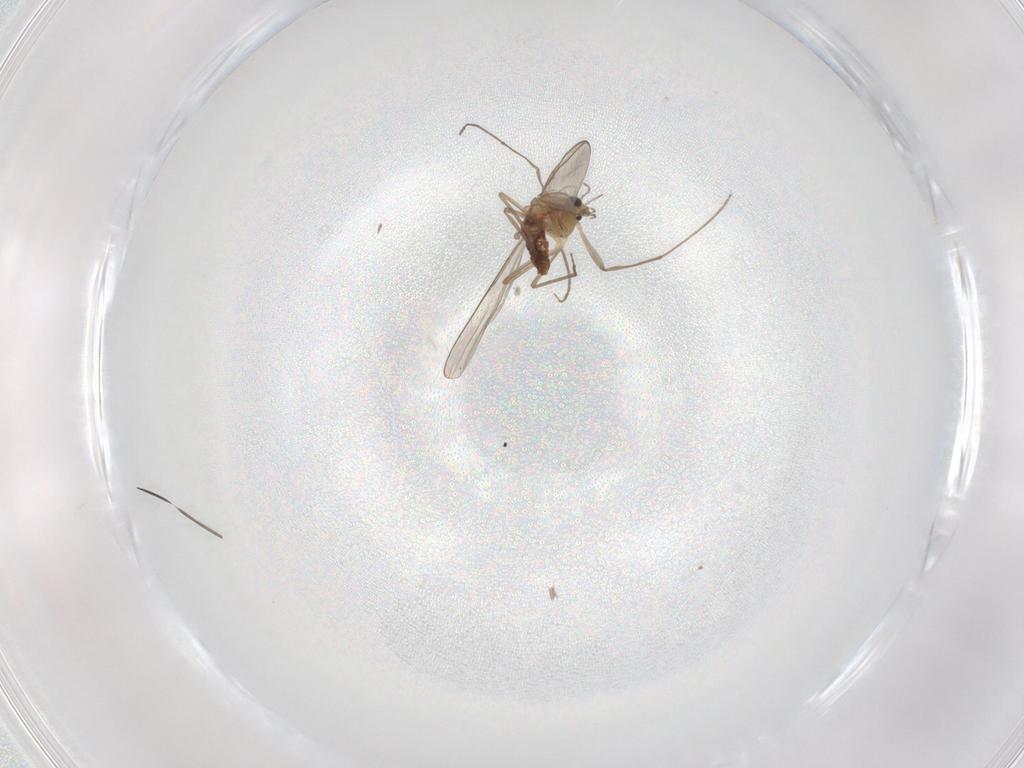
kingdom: Animalia
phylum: Arthropoda
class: Insecta
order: Diptera
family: Chironomidae
